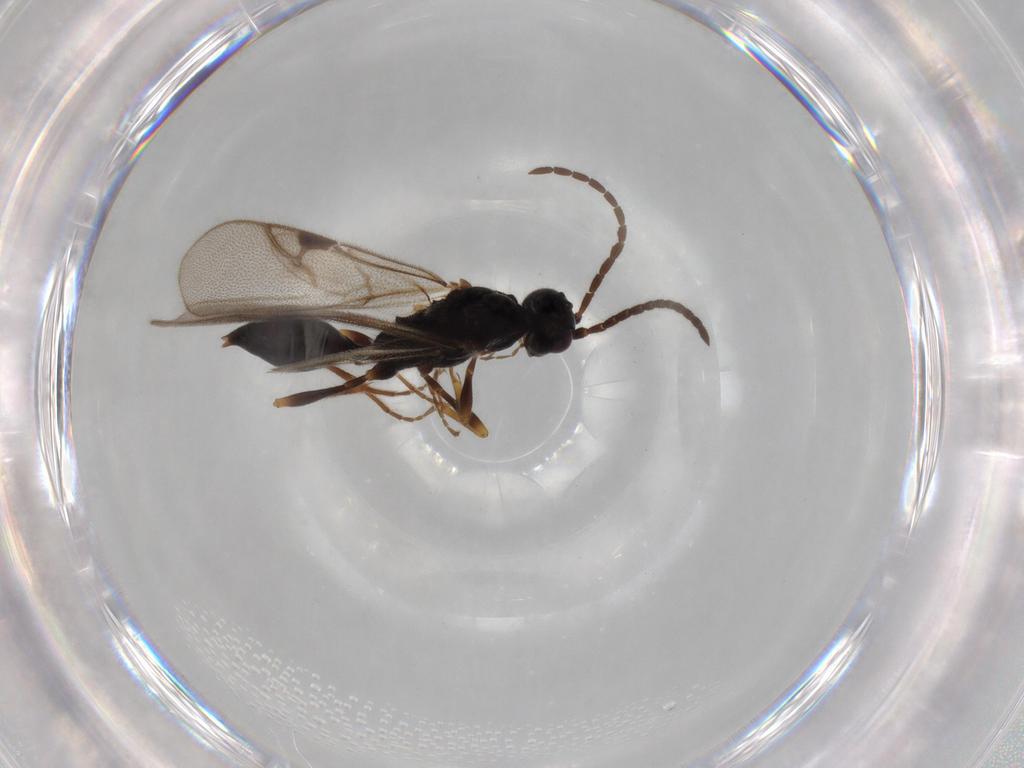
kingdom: Animalia
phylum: Arthropoda
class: Insecta
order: Hymenoptera
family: Proctotrupidae
